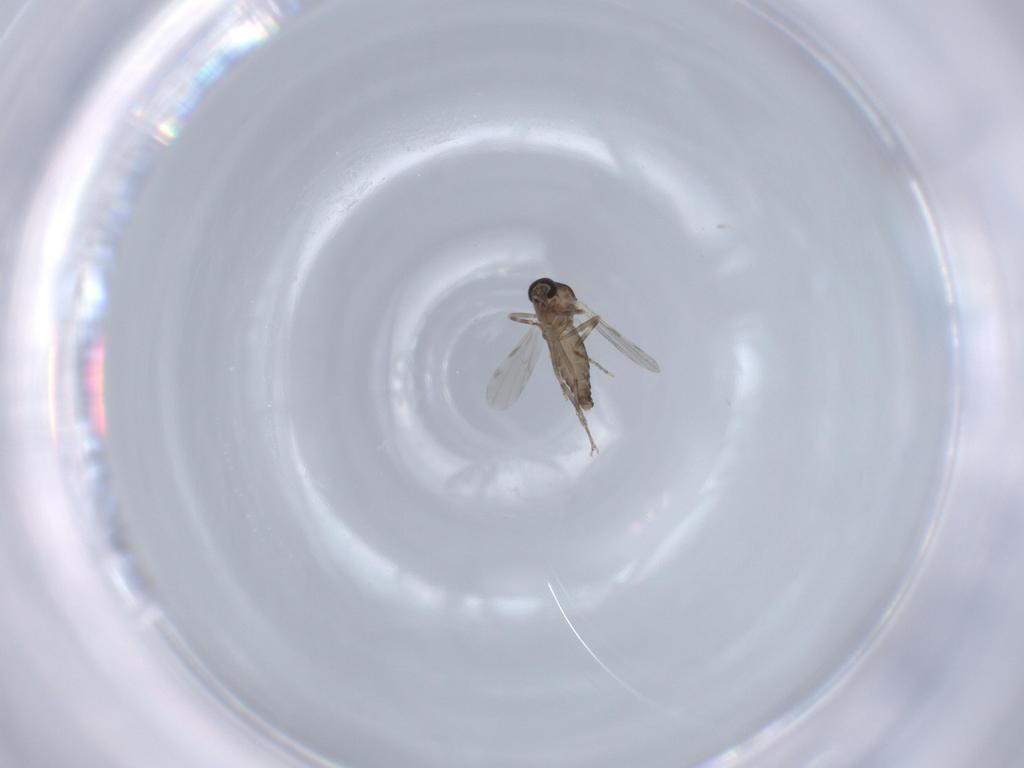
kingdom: Animalia
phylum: Arthropoda
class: Insecta
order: Diptera
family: Ceratopogonidae
